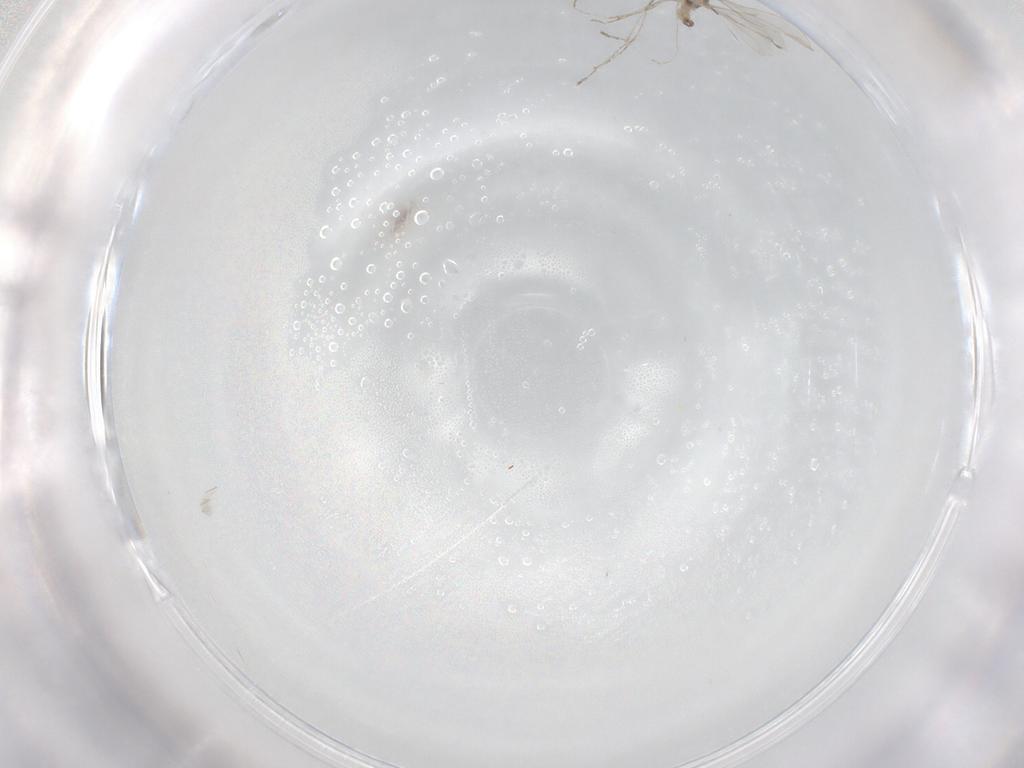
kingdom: Animalia
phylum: Arthropoda
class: Insecta
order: Diptera
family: Cecidomyiidae
